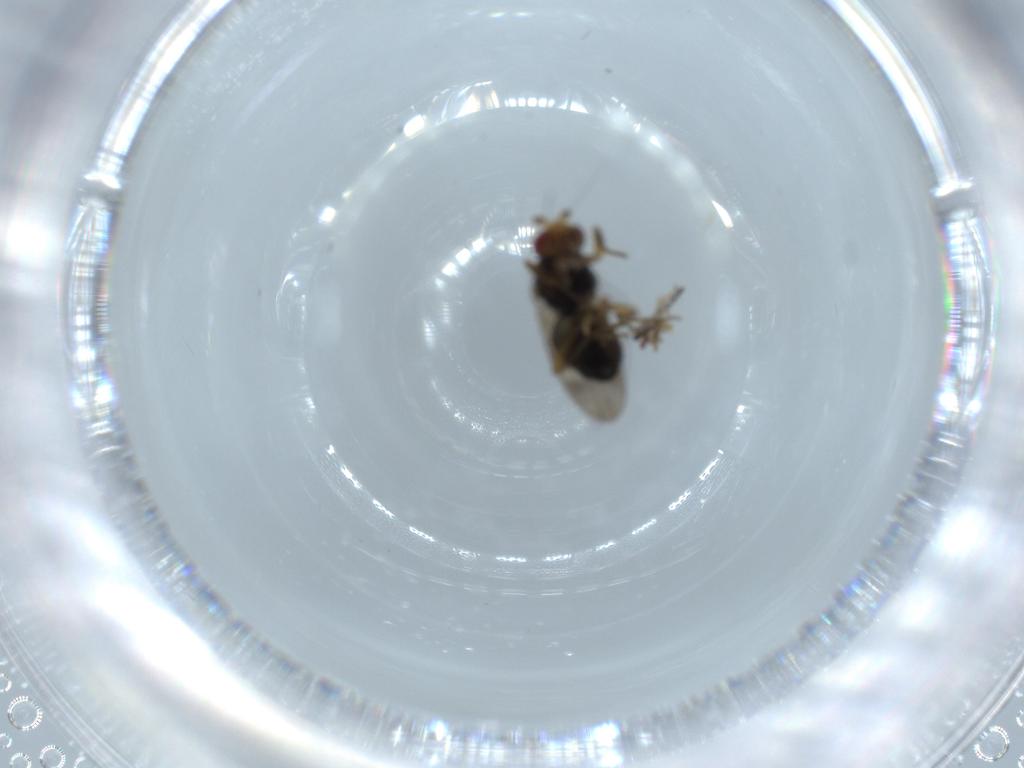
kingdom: Animalia
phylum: Arthropoda
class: Insecta
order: Diptera
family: Sphaeroceridae
